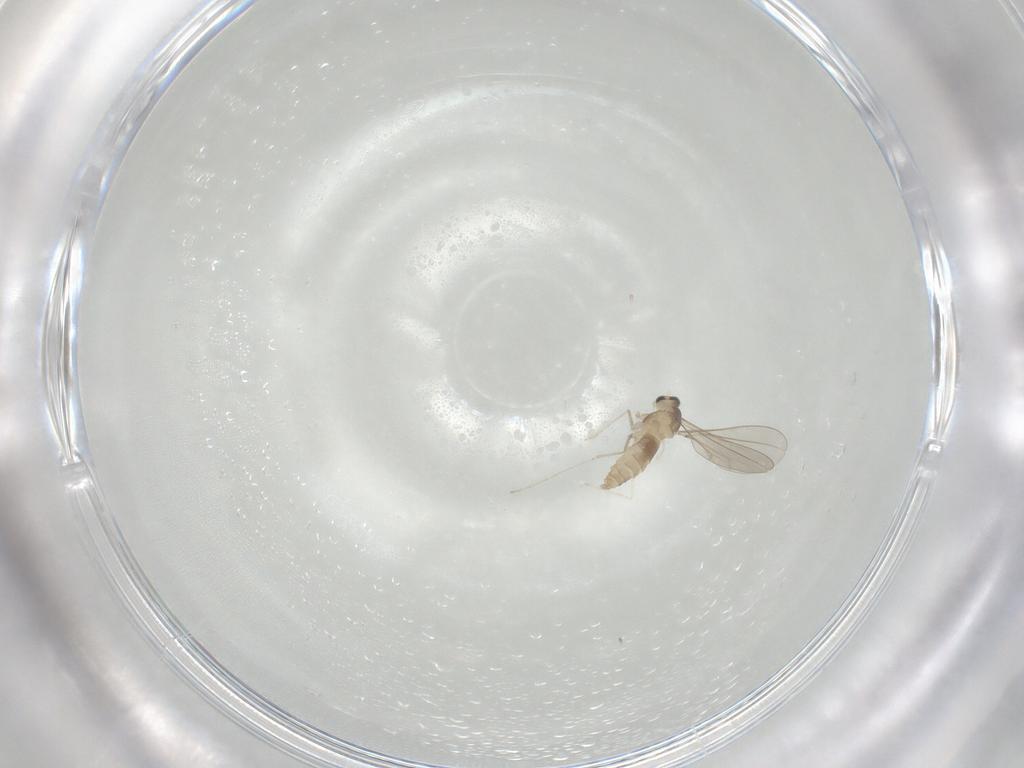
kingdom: Animalia
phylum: Arthropoda
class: Insecta
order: Diptera
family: Cecidomyiidae
